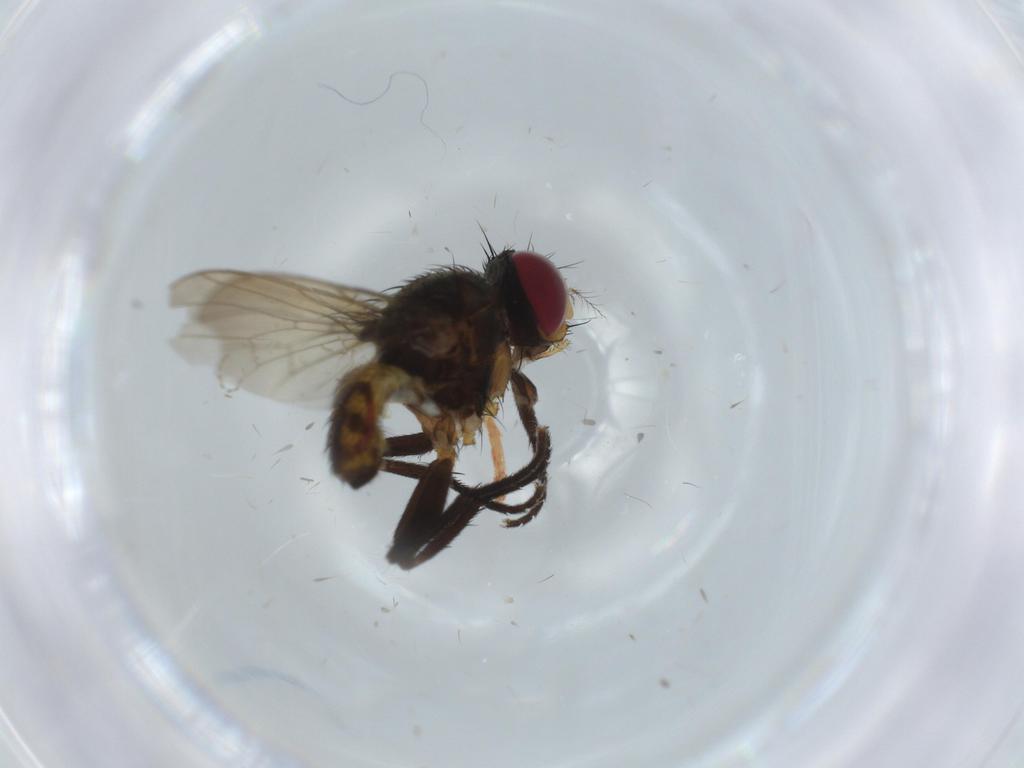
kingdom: Animalia
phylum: Arthropoda
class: Insecta
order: Diptera
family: Anthomyiidae
